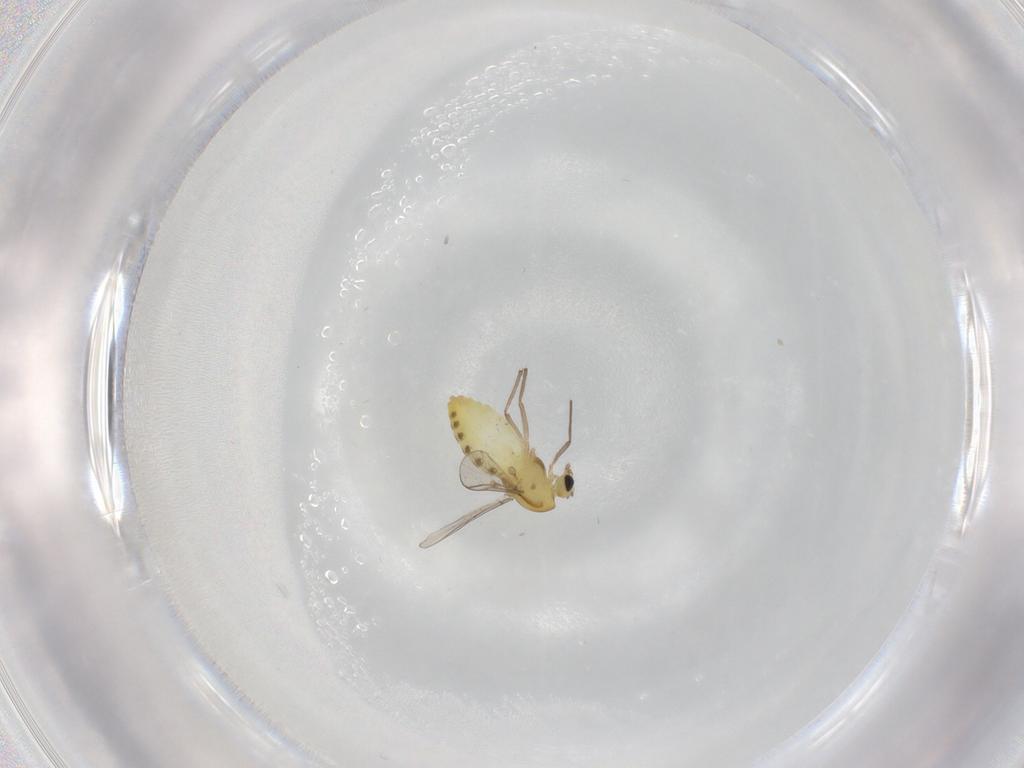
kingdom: Animalia
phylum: Arthropoda
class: Insecta
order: Diptera
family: Chironomidae
